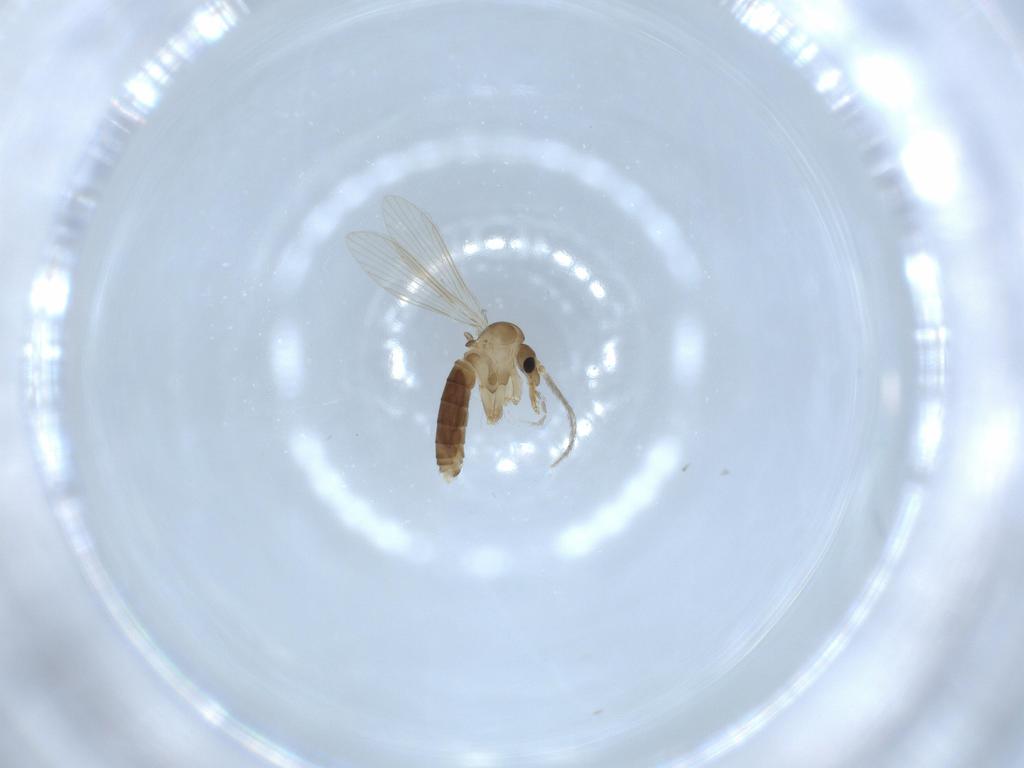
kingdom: Animalia
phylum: Arthropoda
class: Insecta
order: Diptera
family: Psychodidae
